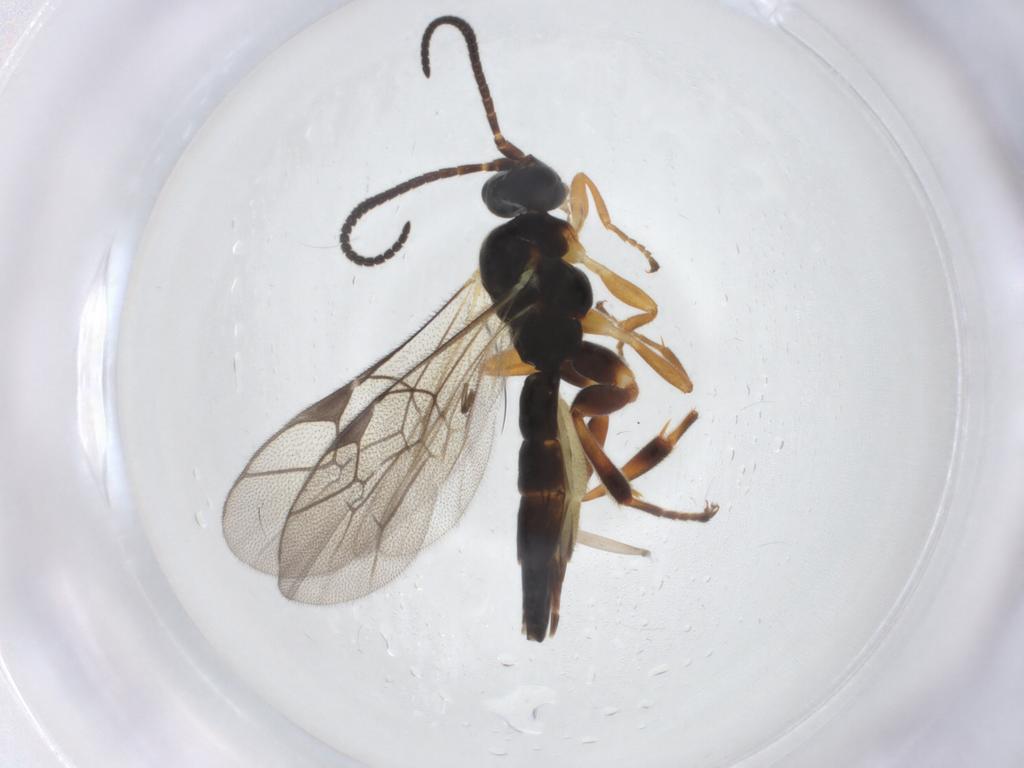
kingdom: Animalia
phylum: Arthropoda
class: Insecta
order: Hymenoptera
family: Ichneumonidae
